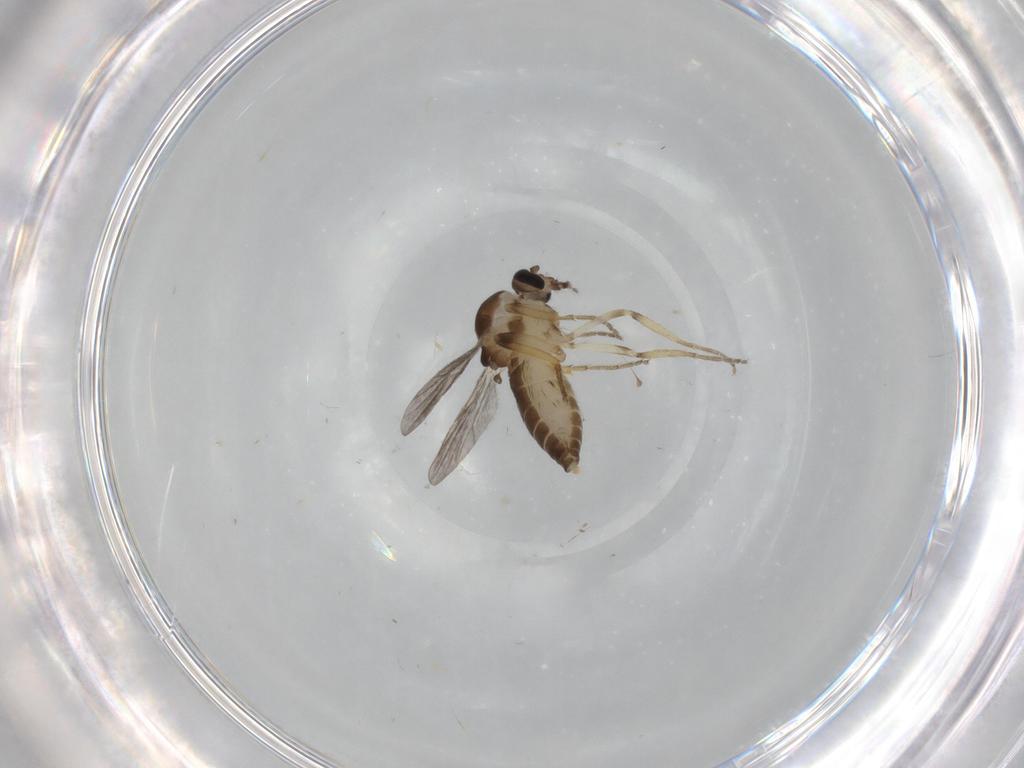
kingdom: Animalia
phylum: Arthropoda
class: Insecta
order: Diptera
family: Ceratopogonidae
